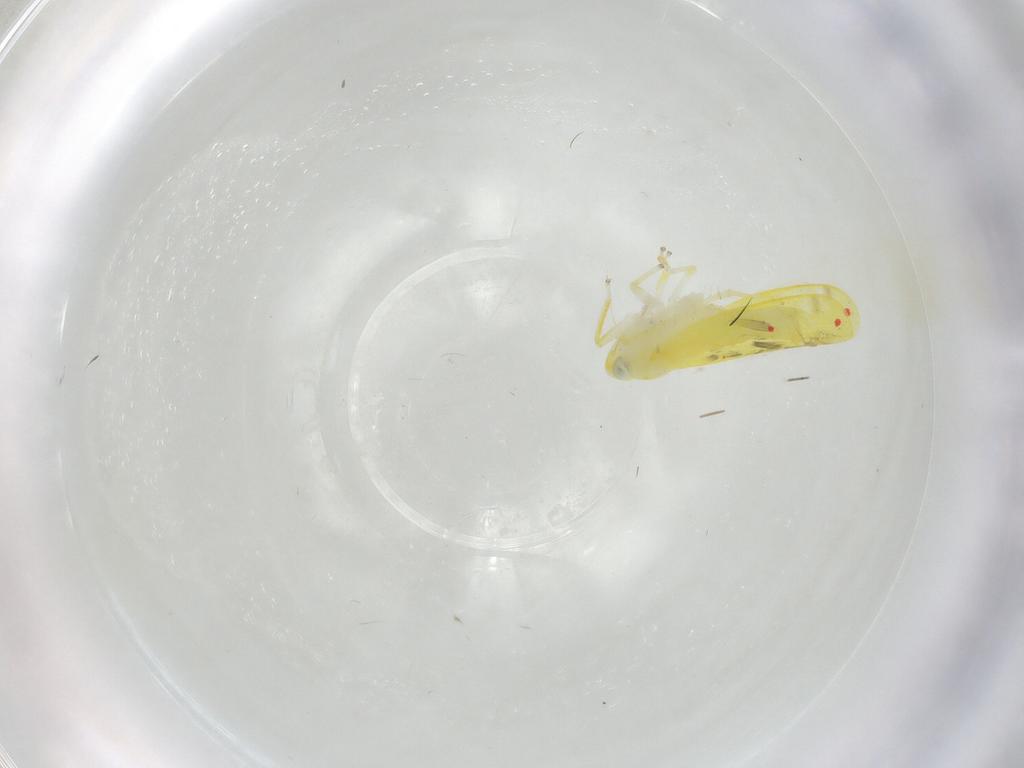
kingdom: Animalia
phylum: Arthropoda
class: Insecta
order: Hemiptera
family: Cicadellidae
